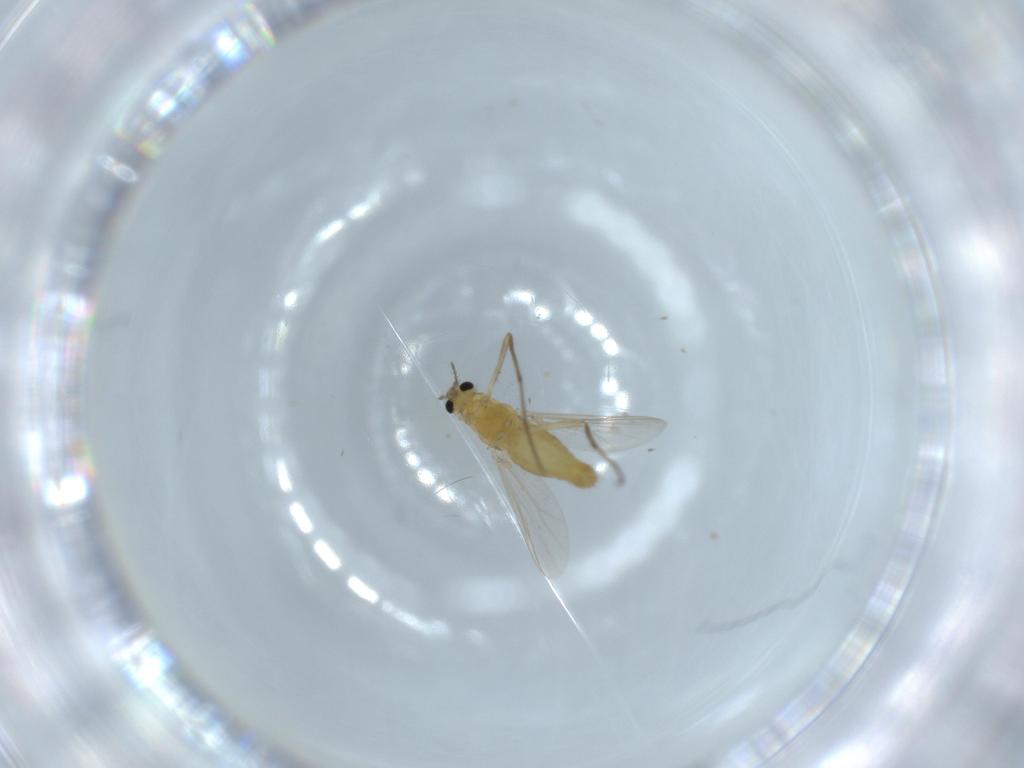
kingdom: Animalia
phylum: Arthropoda
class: Insecta
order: Diptera
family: Chironomidae
